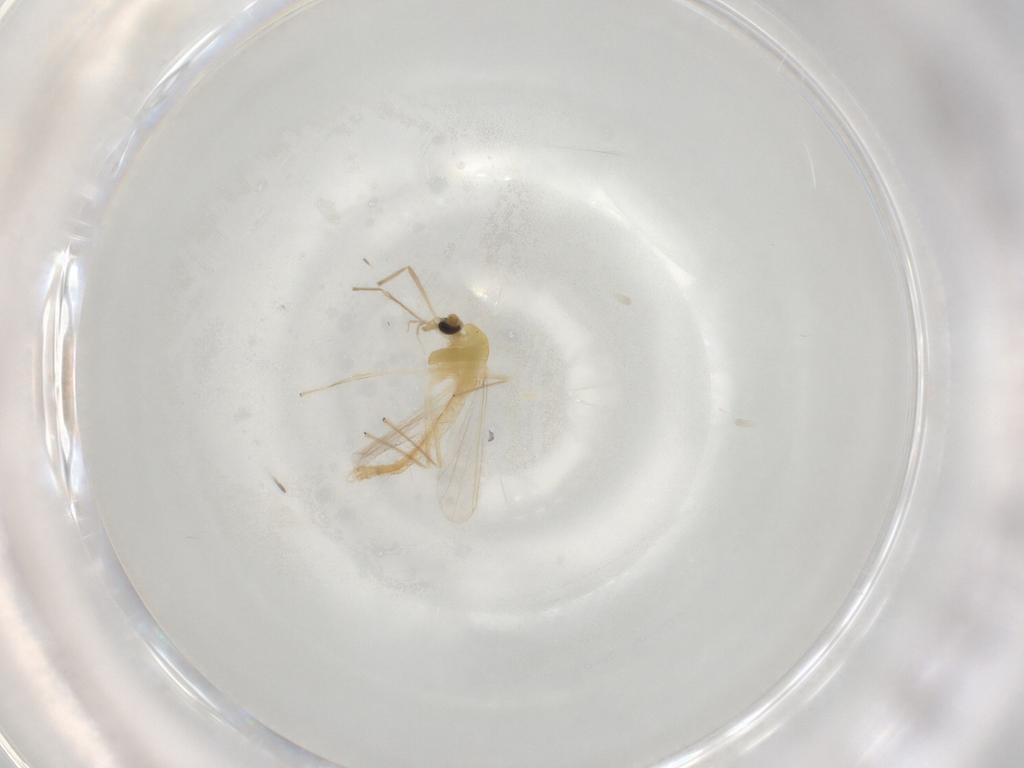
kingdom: Animalia
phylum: Arthropoda
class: Insecta
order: Diptera
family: Chironomidae
